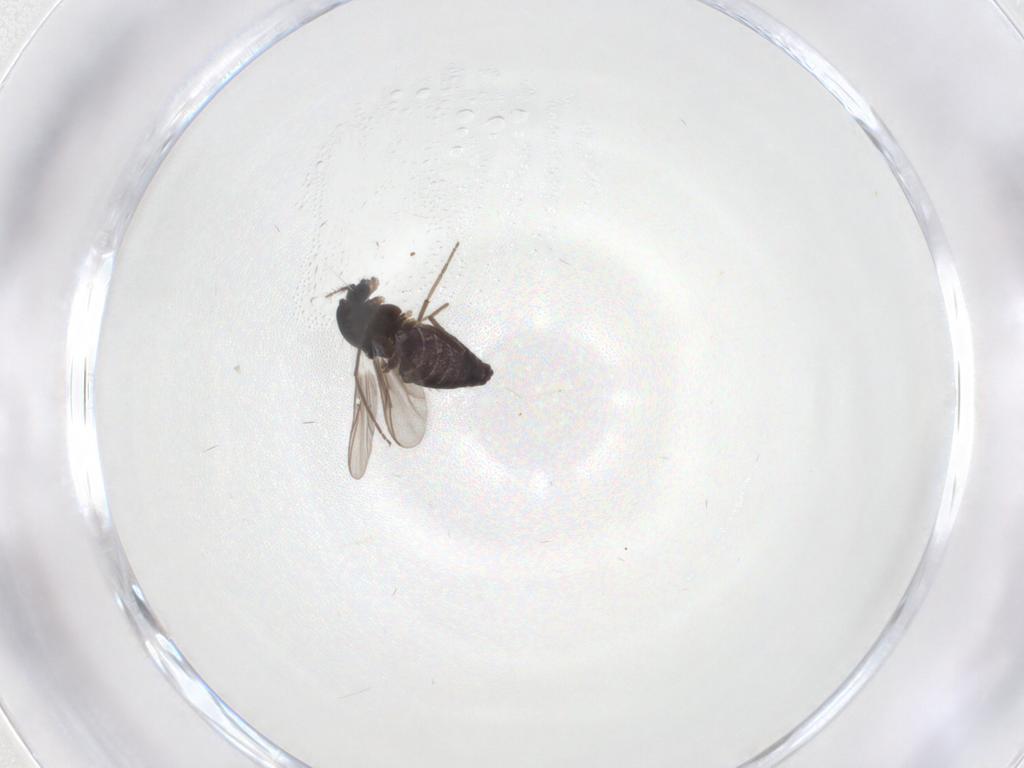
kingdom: Animalia
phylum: Arthropoda
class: Insecta
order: Diptera
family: Chironomidae
